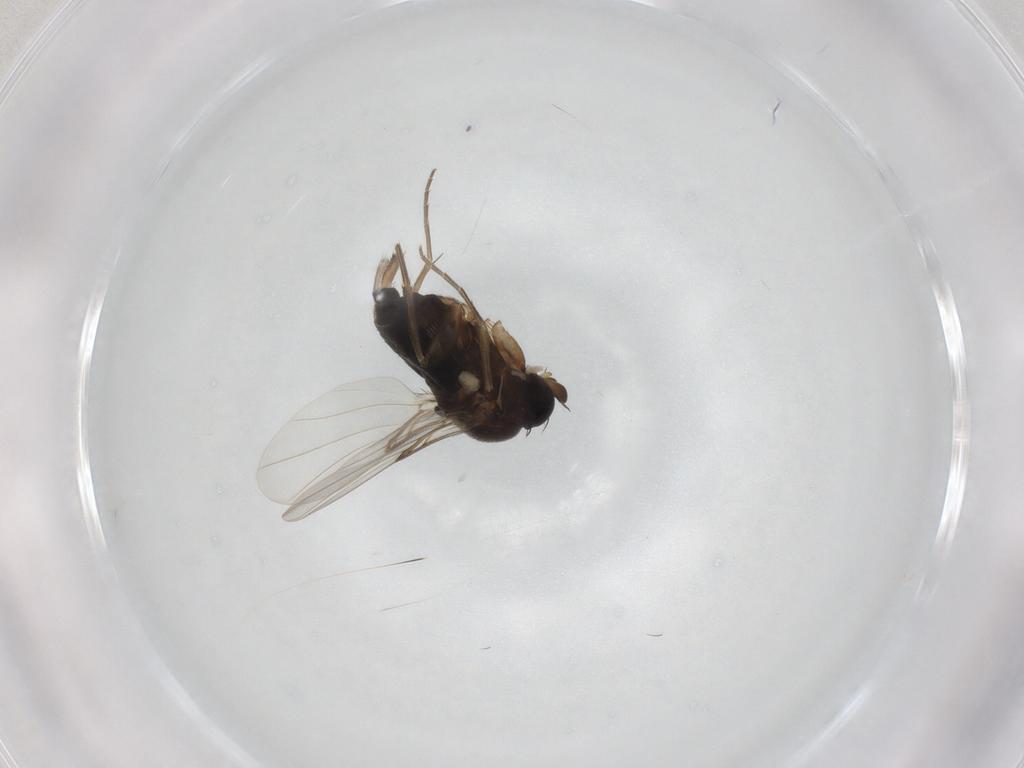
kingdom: Animalia
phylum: Arthropoda
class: Insecta
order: Diptera
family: Phoridae
